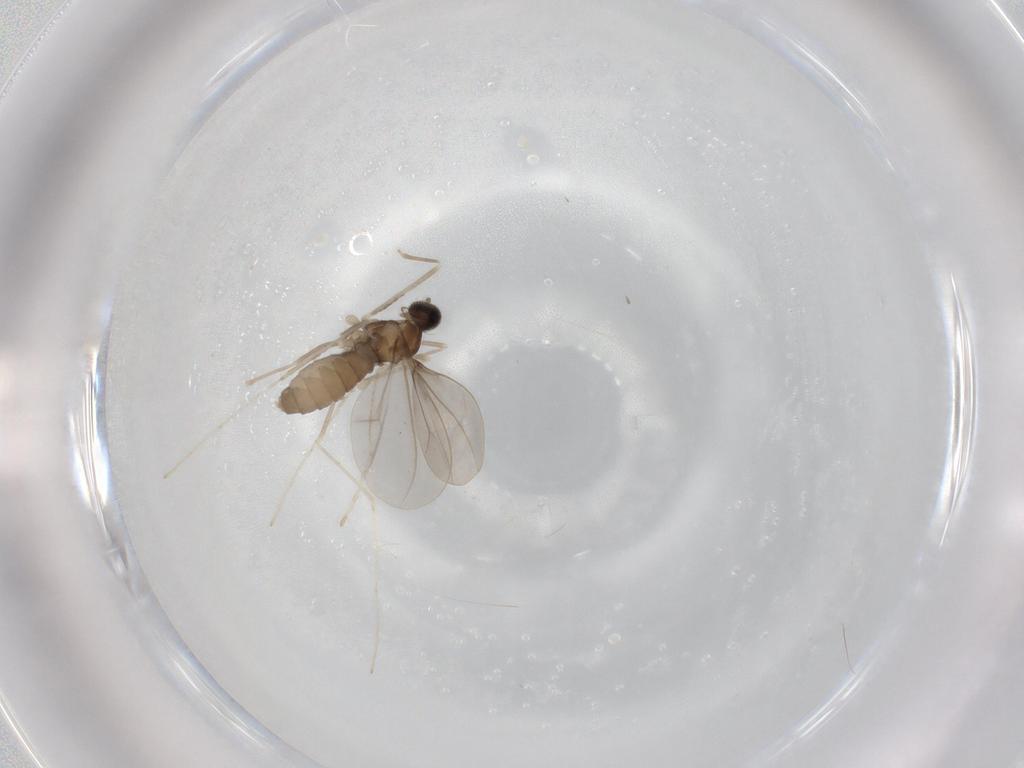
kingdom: Animalia
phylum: Arthropoda
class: Insecta
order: Diptera
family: Cecidomyiidae
